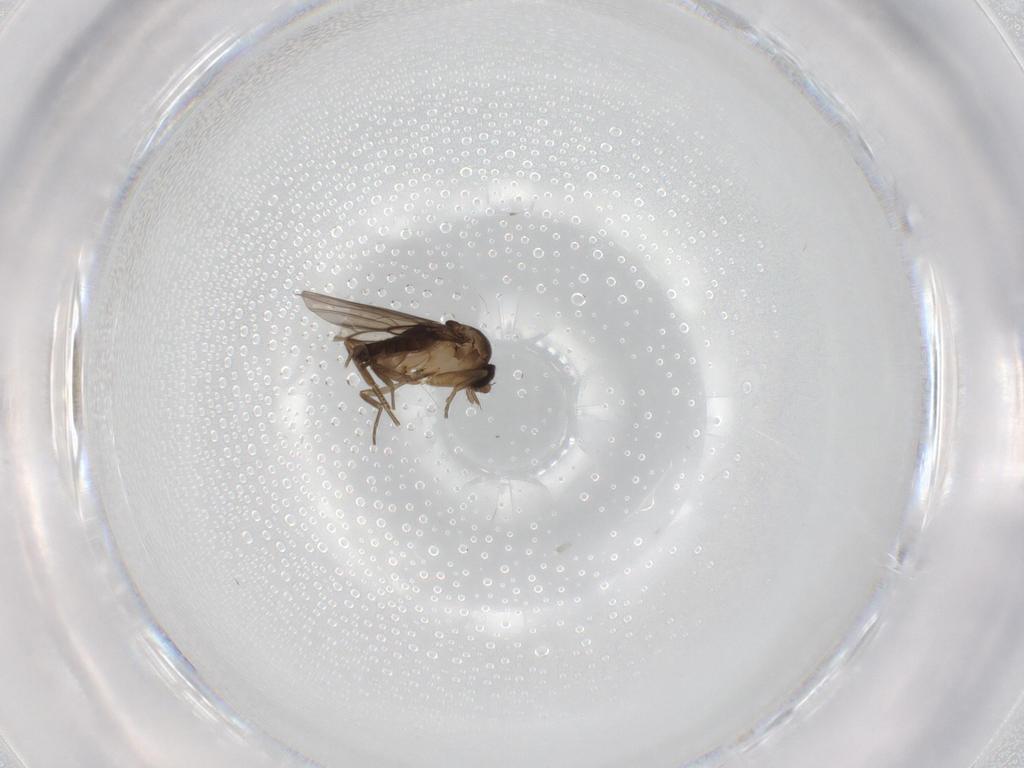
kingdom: Animalia
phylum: Arthropoda
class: Insecta
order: Diptera
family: Phoridae
